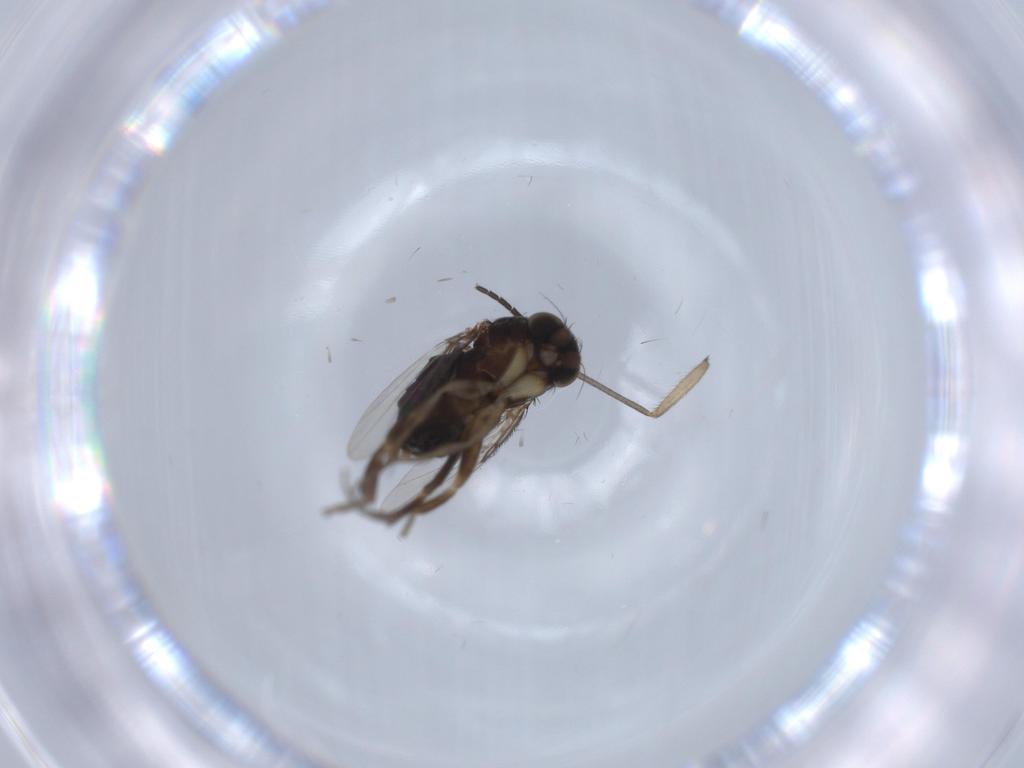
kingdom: Animalia
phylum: Arthropoda
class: Insecta
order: Diptera
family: Phoridae
